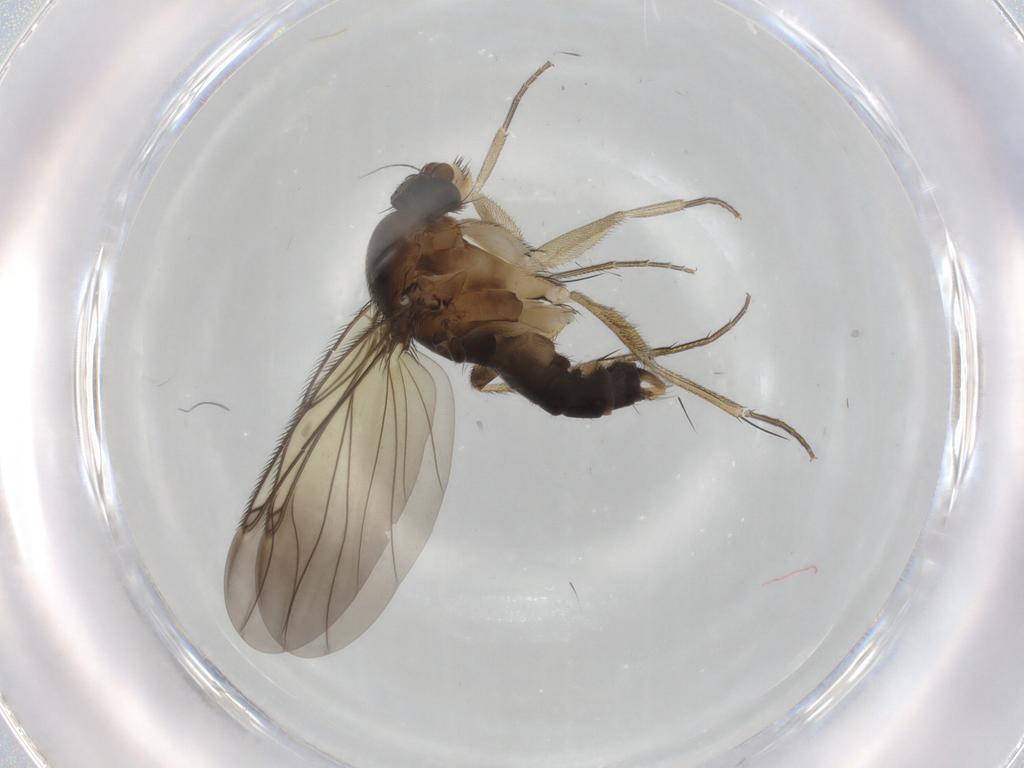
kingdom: Animalia
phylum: Arthropoda
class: Insecta
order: Diptera
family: Phoridae
